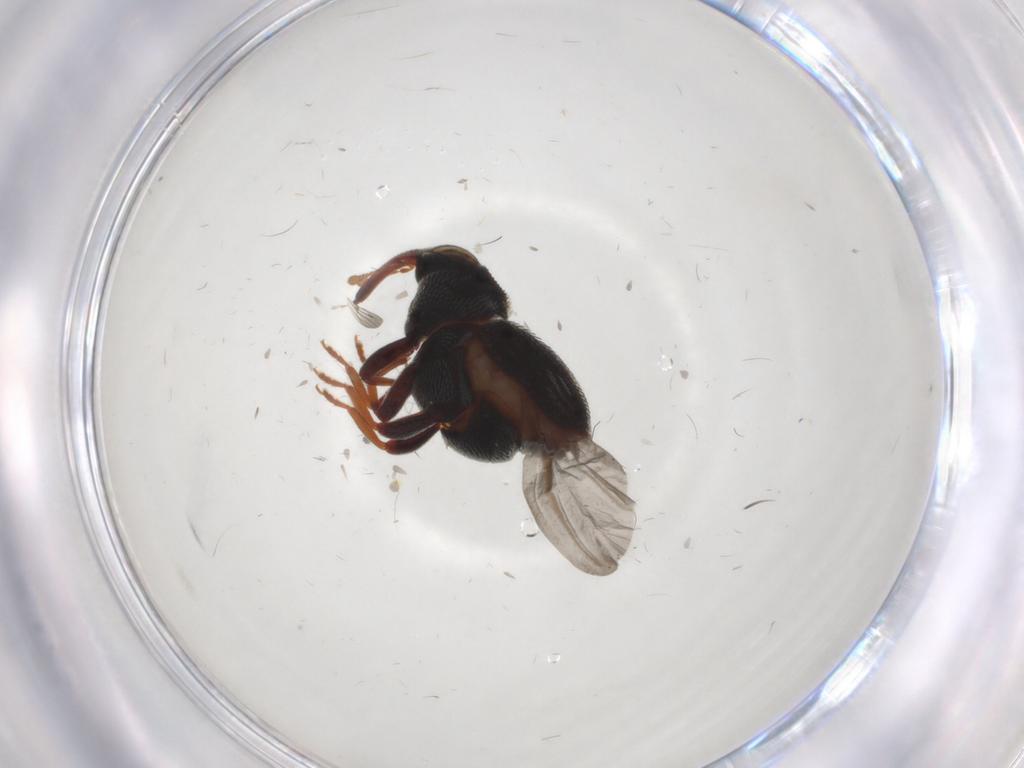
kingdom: Animalia
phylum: Arthropoda
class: Insecta
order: Coleoptera
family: Curculionidae
